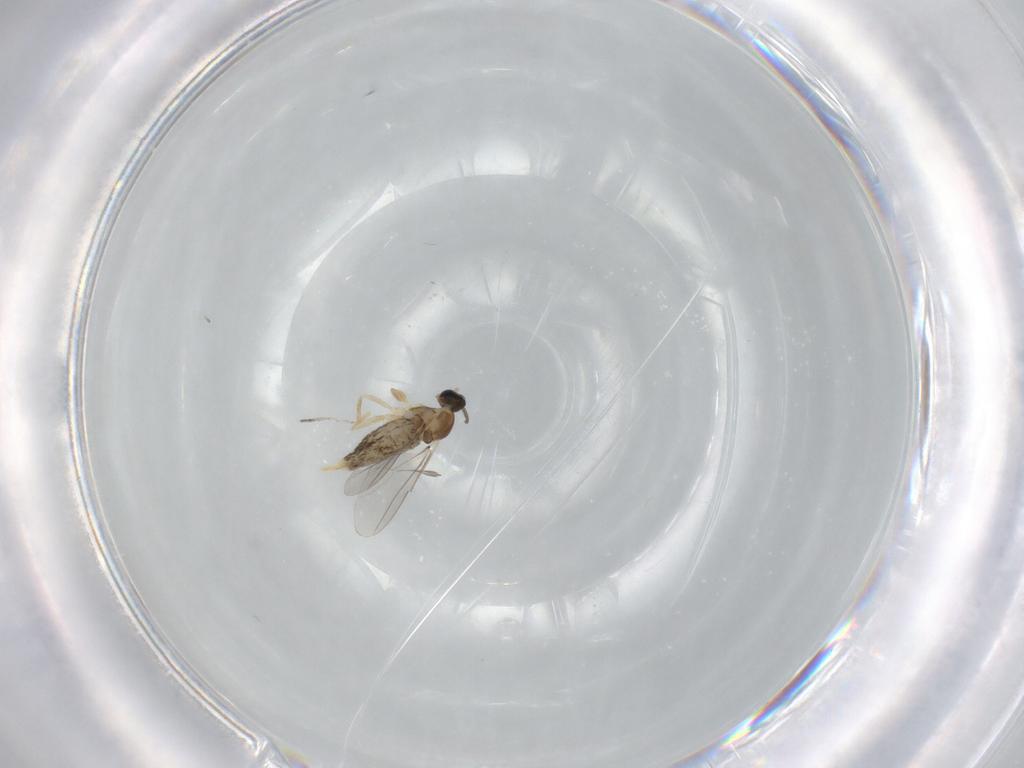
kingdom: Animalia
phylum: Arthropoda
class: Insecta
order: Diptera
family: Cecidomyiidae
